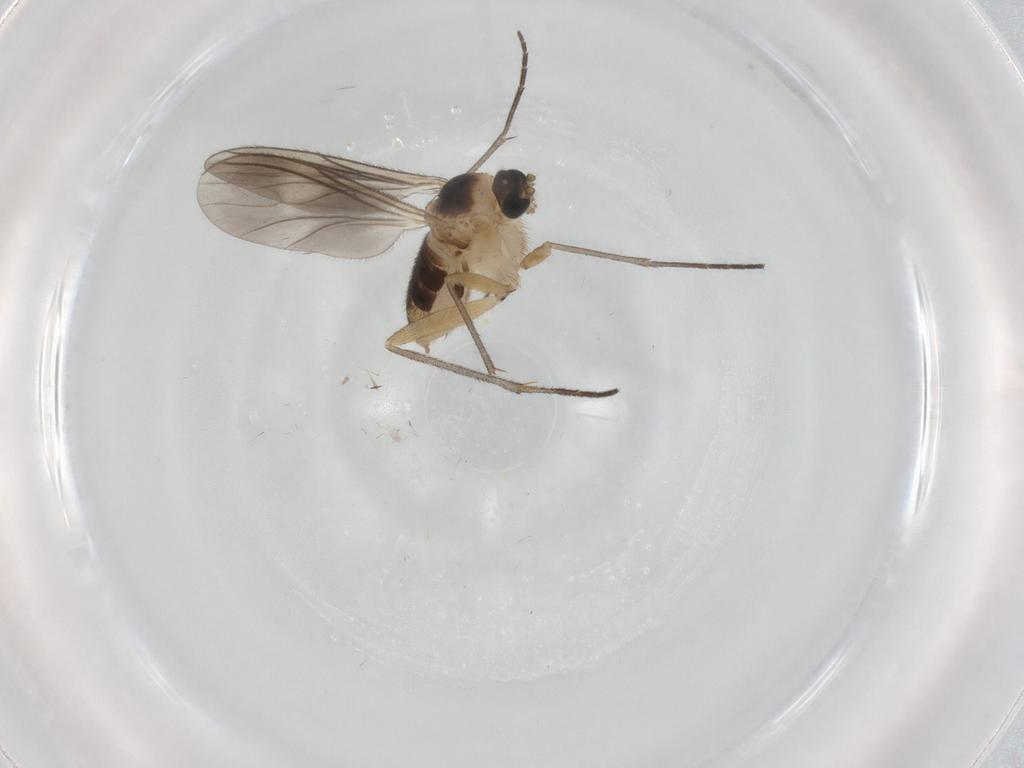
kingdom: Animalia
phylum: Arthropoda
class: Insecta
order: Diptera
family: Sciaridae
